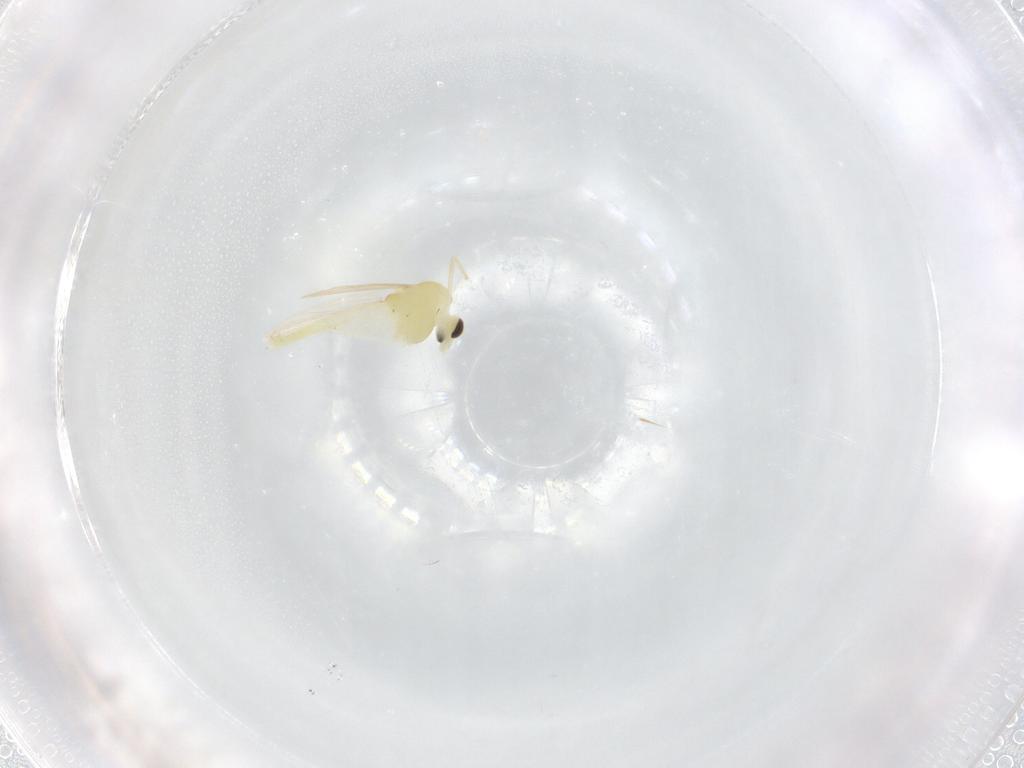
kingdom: Animalia
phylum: Arthropoda
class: Insecta
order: Diptera
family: Chironomidae
